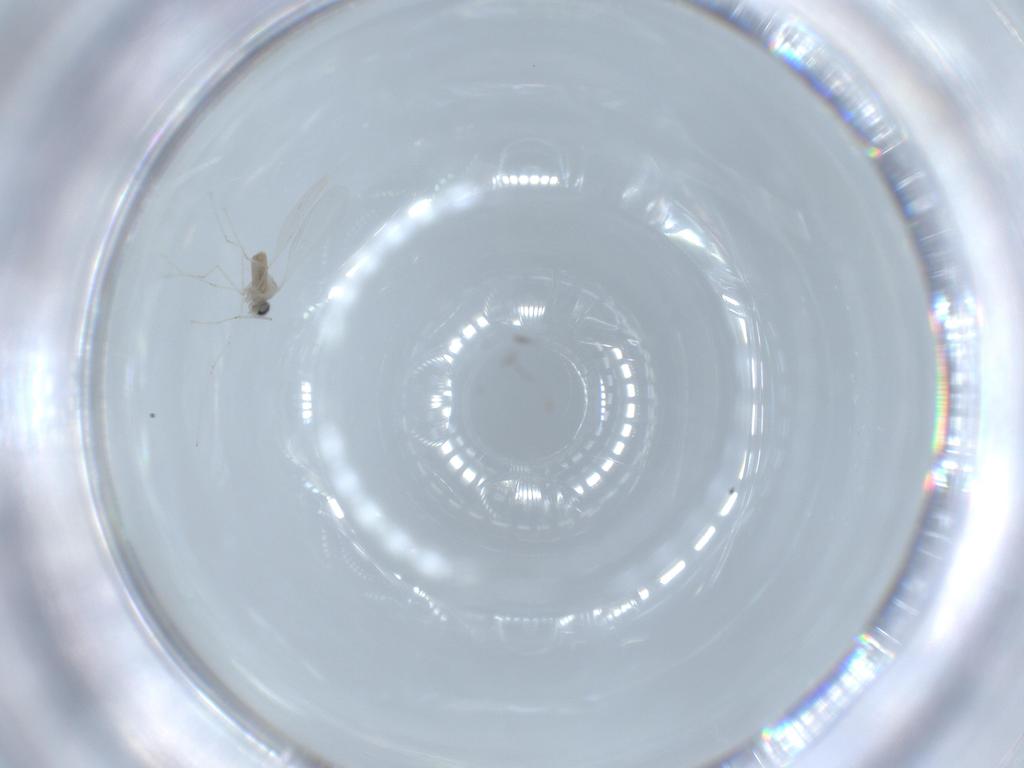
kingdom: Animalia
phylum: Arthropoda
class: Insecta
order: Diptera
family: Cecidomyiidae
